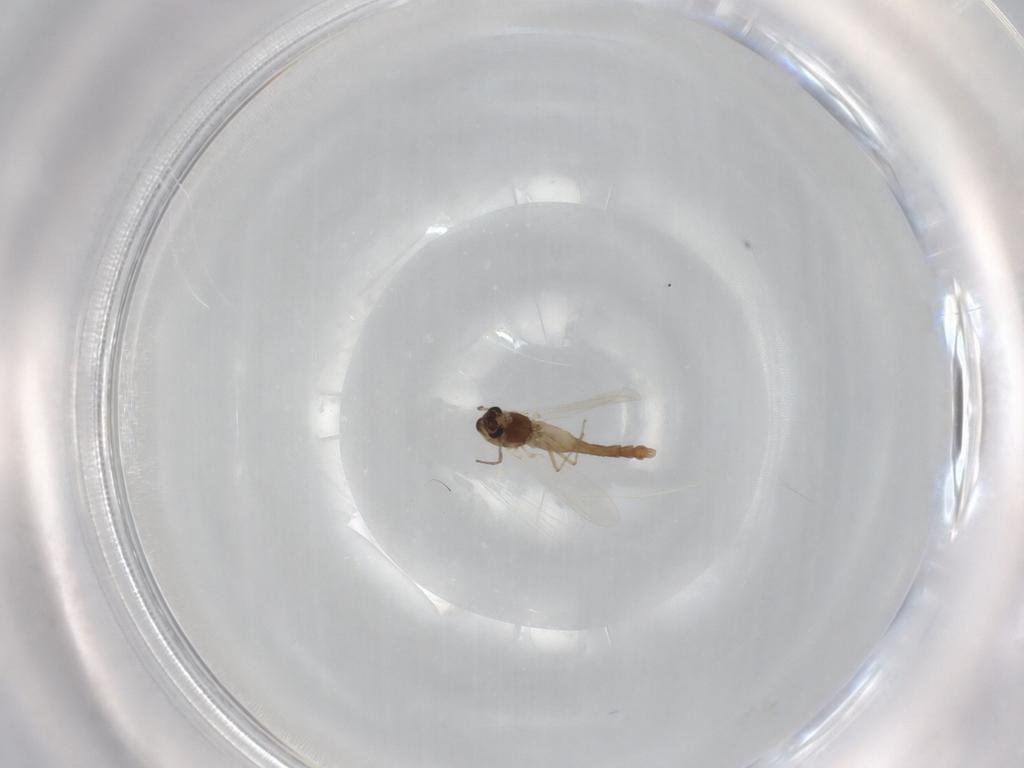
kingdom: Animalia
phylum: Arthropoda
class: Insecta
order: Diptera
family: Chironomidae
